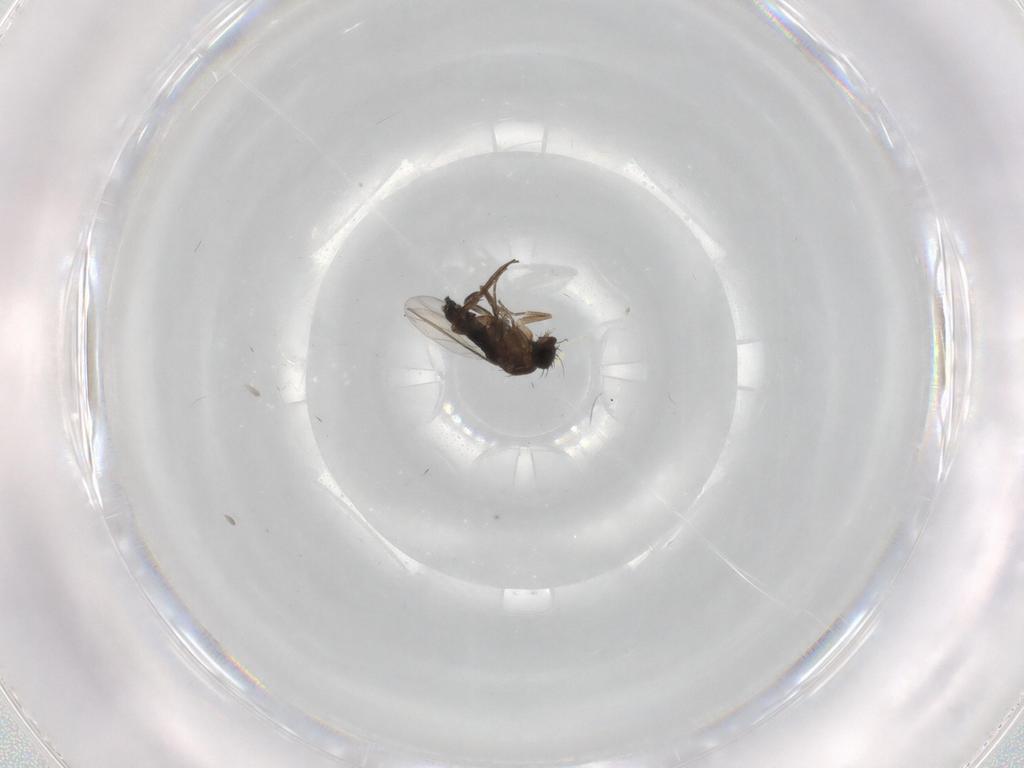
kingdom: Animalia
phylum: Arthropoda
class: Insecta
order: Diptera
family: Phoridae
